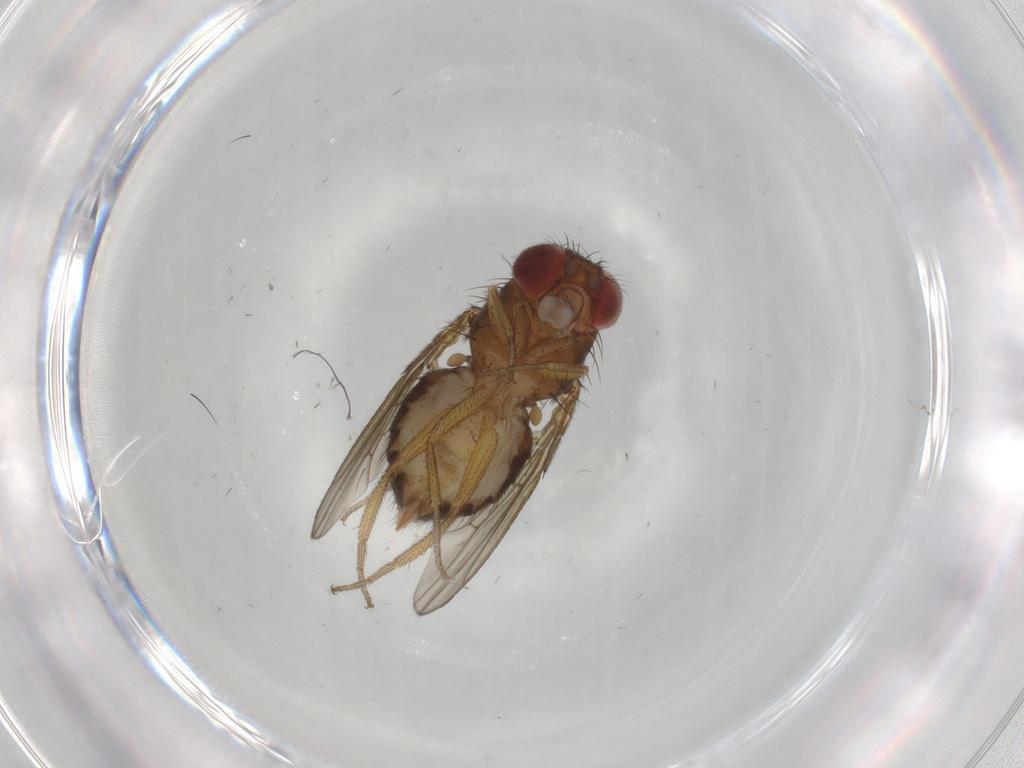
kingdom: Animalia
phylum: Arthropoda
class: Insecta
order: Diptera
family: Drosophilidae
